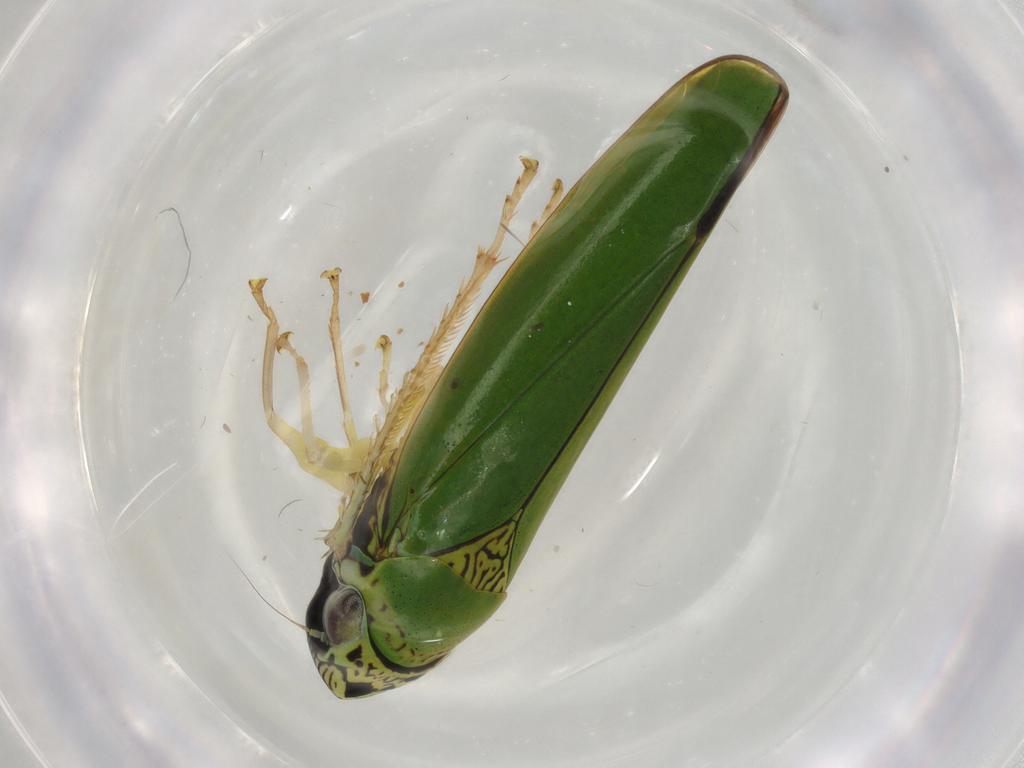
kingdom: Animalia
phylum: Arthropoda
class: Insecta
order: Hemiptera
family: Cicadellidae
